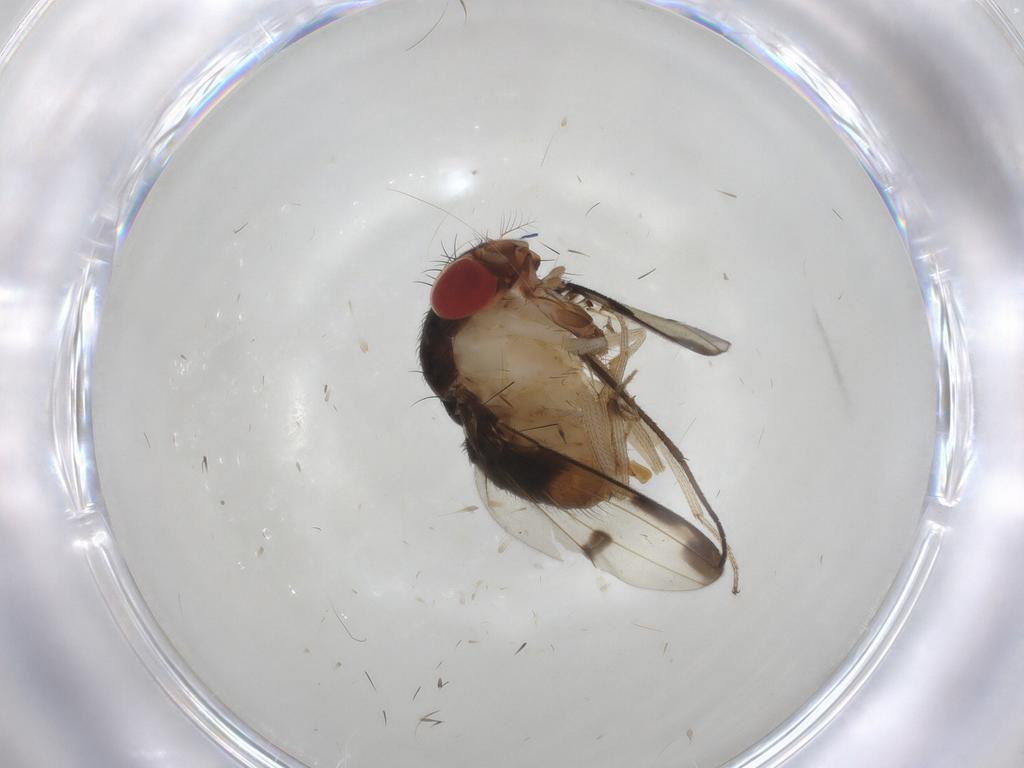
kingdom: Animalia
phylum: Arthropoda
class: Insecta
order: Diptera
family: Drosophilidae
